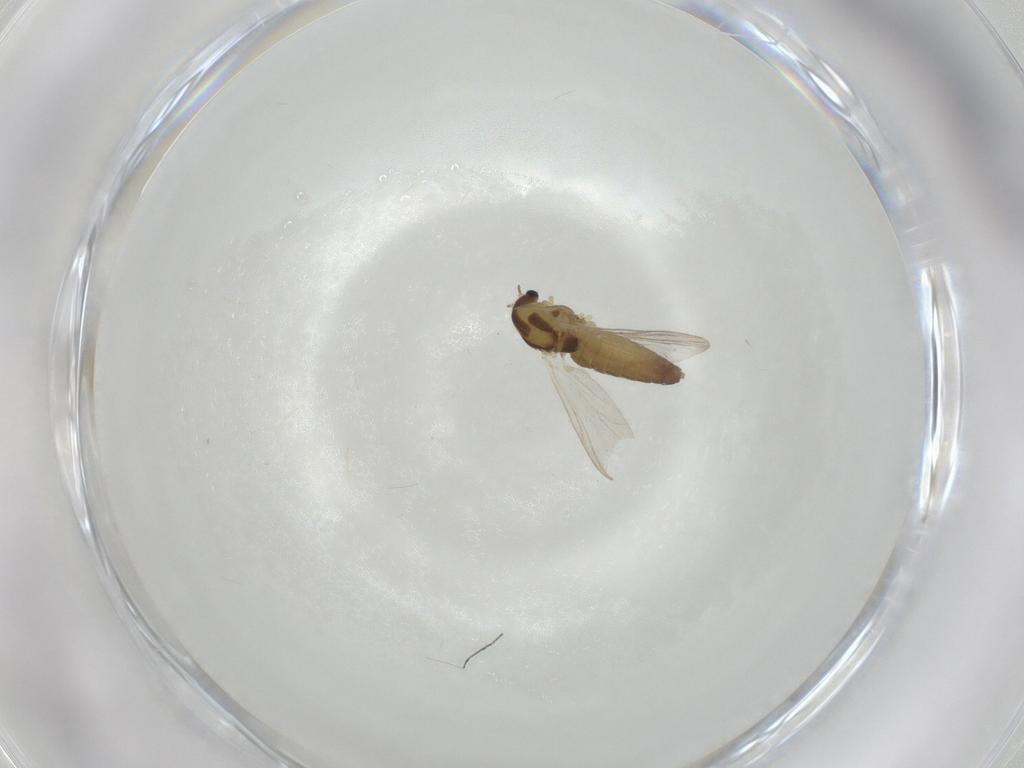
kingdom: Animalia
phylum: Arthropoda
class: Insecta
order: Diptera
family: Chironomidae
